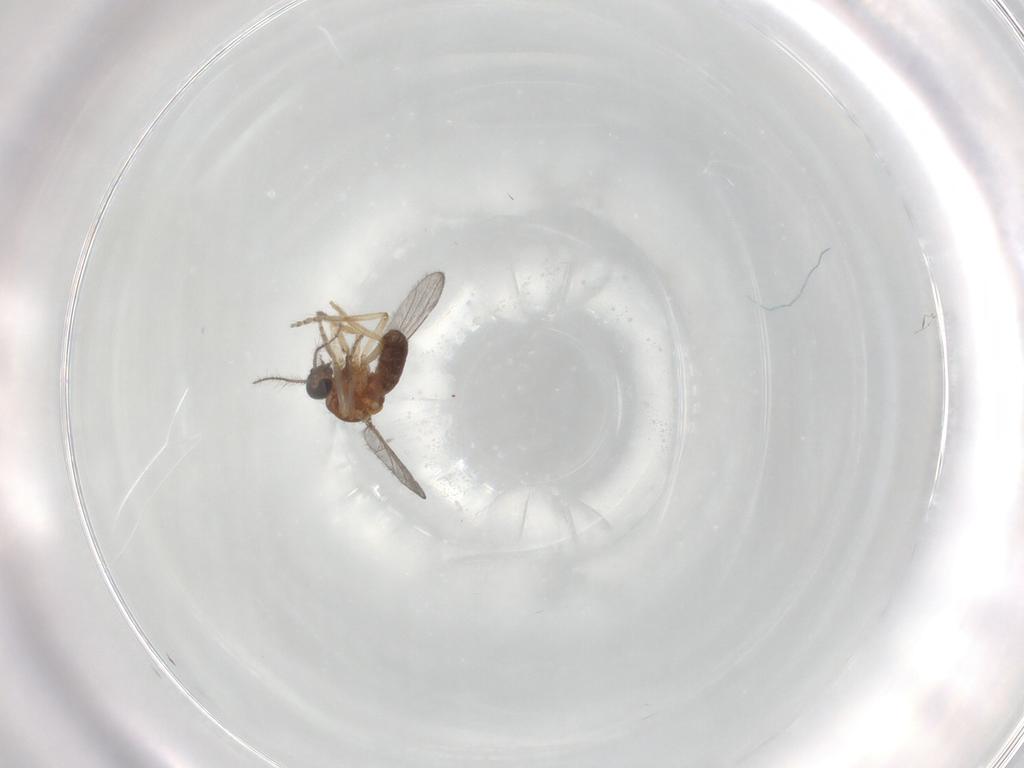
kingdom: Animalia
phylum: Arthropoda
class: Insecta
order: Diptera
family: Ceratopogonidae
